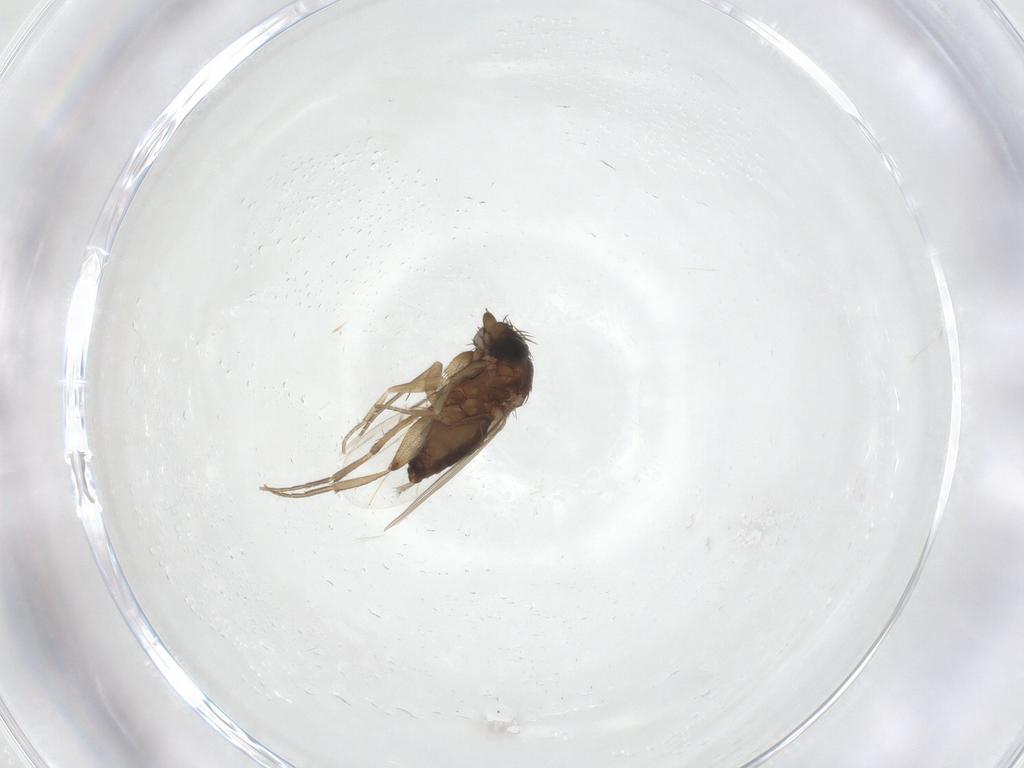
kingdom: Animalia
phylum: Arthropoda
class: Insecta
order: Diptera
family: Phoridae
